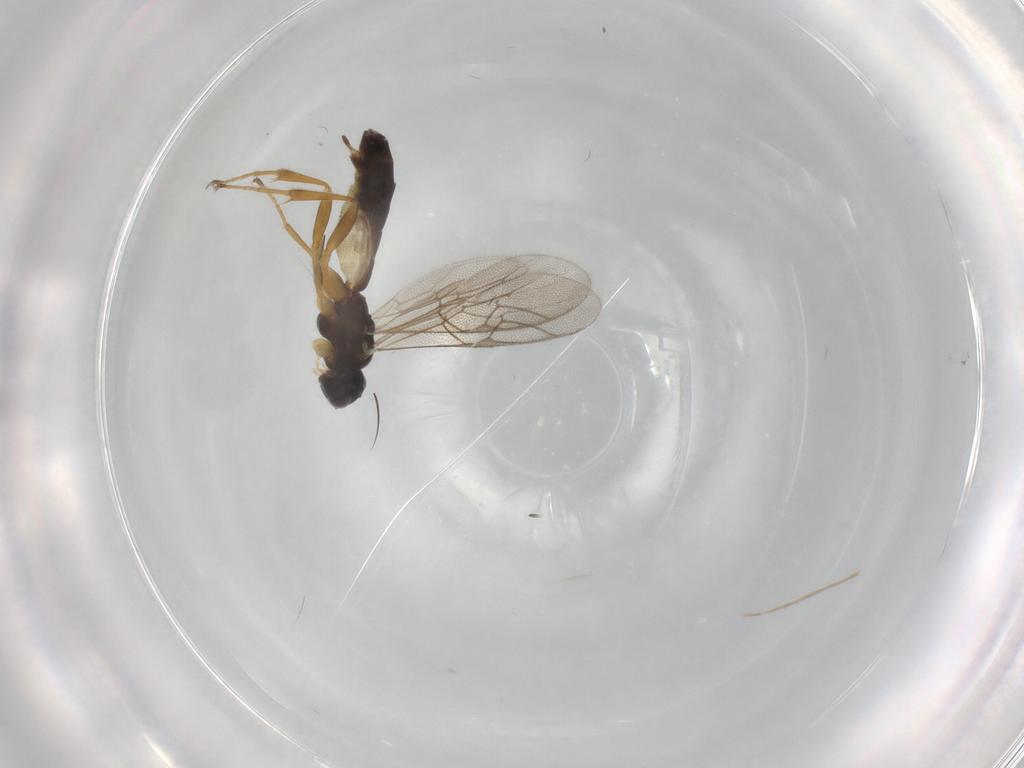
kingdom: Animalia
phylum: Arthropoda
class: Insecta
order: Hymenoptera
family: Ichneumonidae
